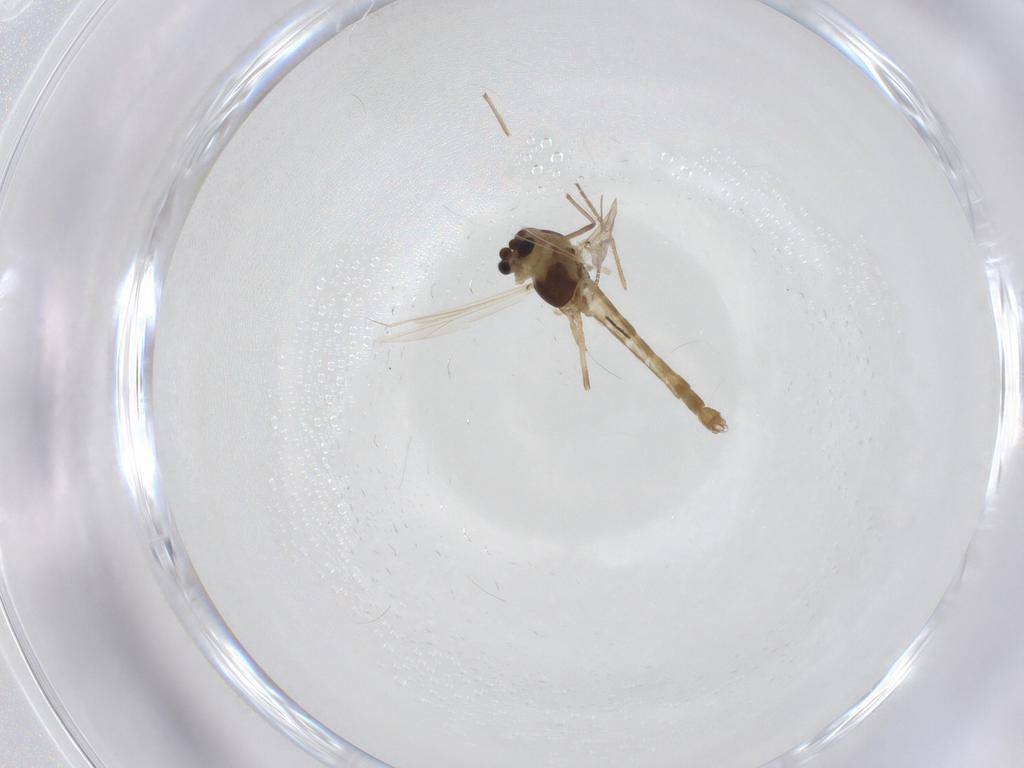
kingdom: Animalia
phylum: Arthropoda
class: Insecta
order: Diptera
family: Chironomidae
